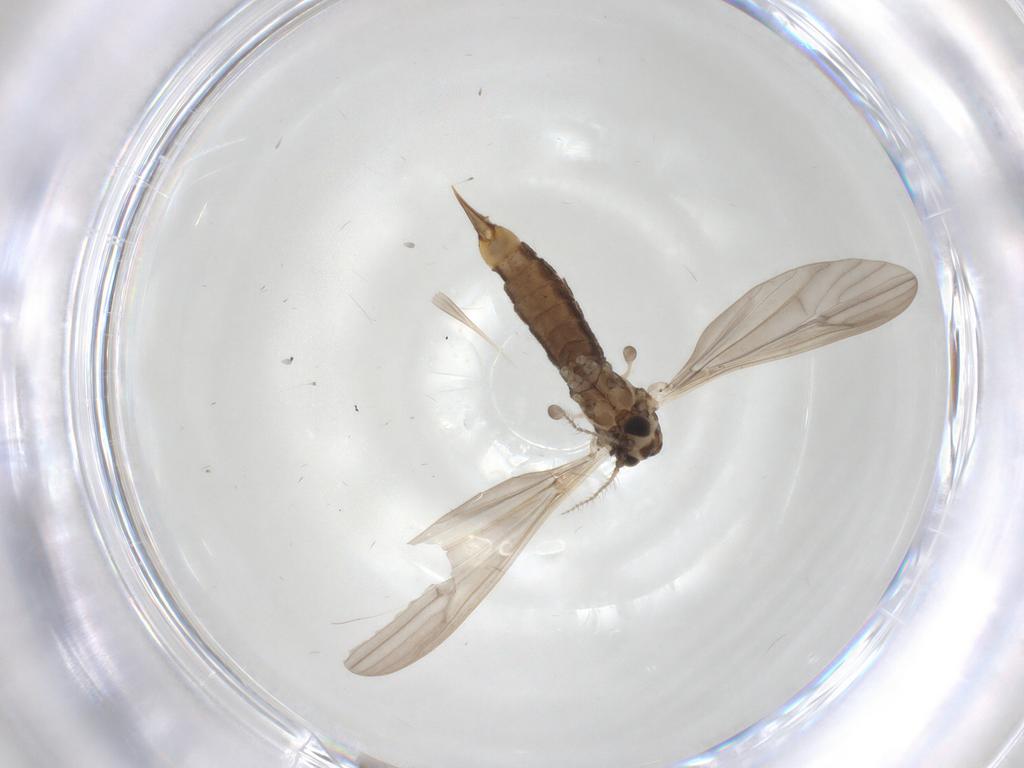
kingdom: Animalia
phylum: Arthropoda
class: Insecta
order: Diptera
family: Limoniidae
